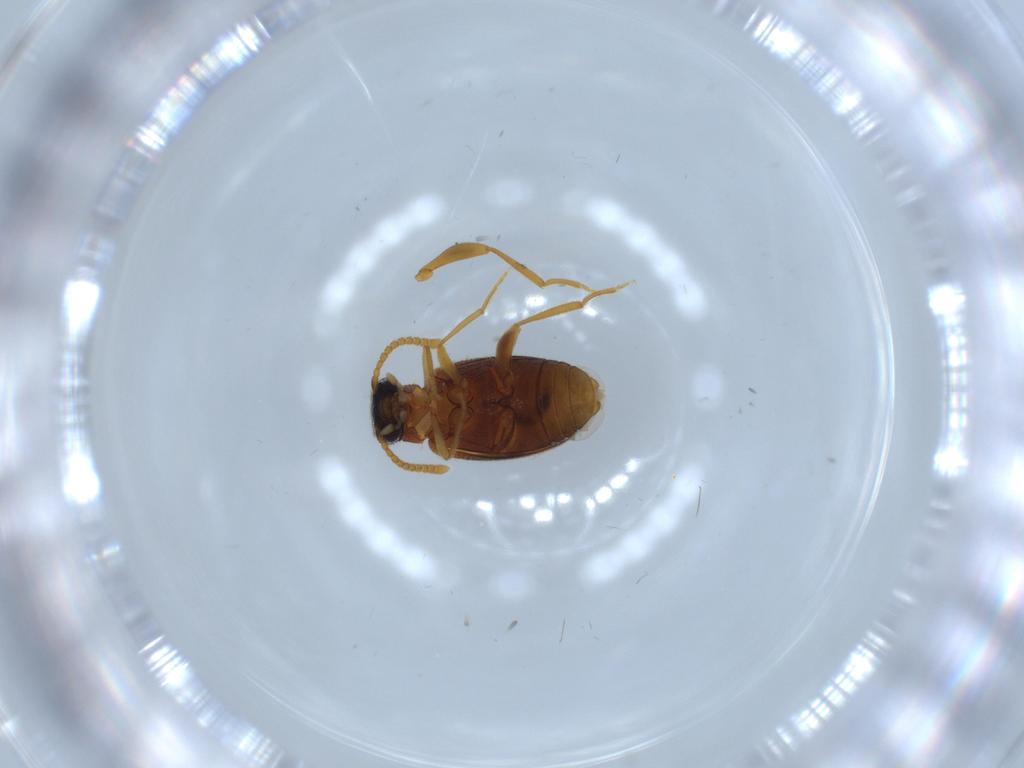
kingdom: Animalia
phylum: Arthropoda
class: Insecta
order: Coleoptera
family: Aderidae
